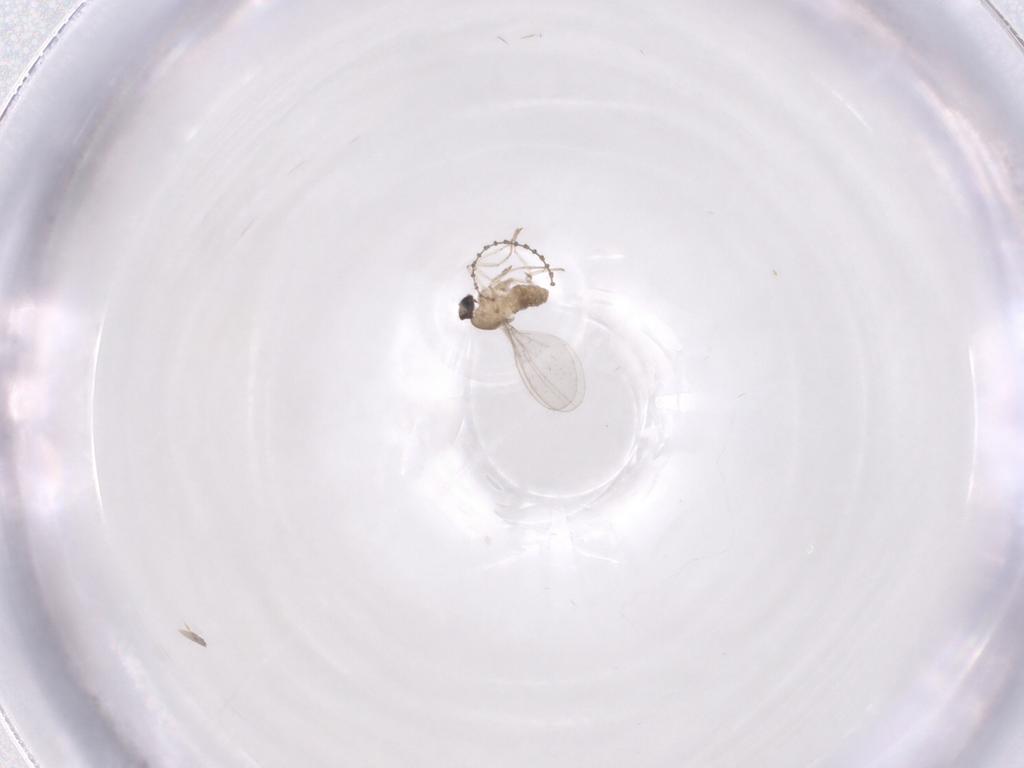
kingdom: Animalia
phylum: Arthropoda
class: Insecta
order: Diptera
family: Cecidomyiidae
